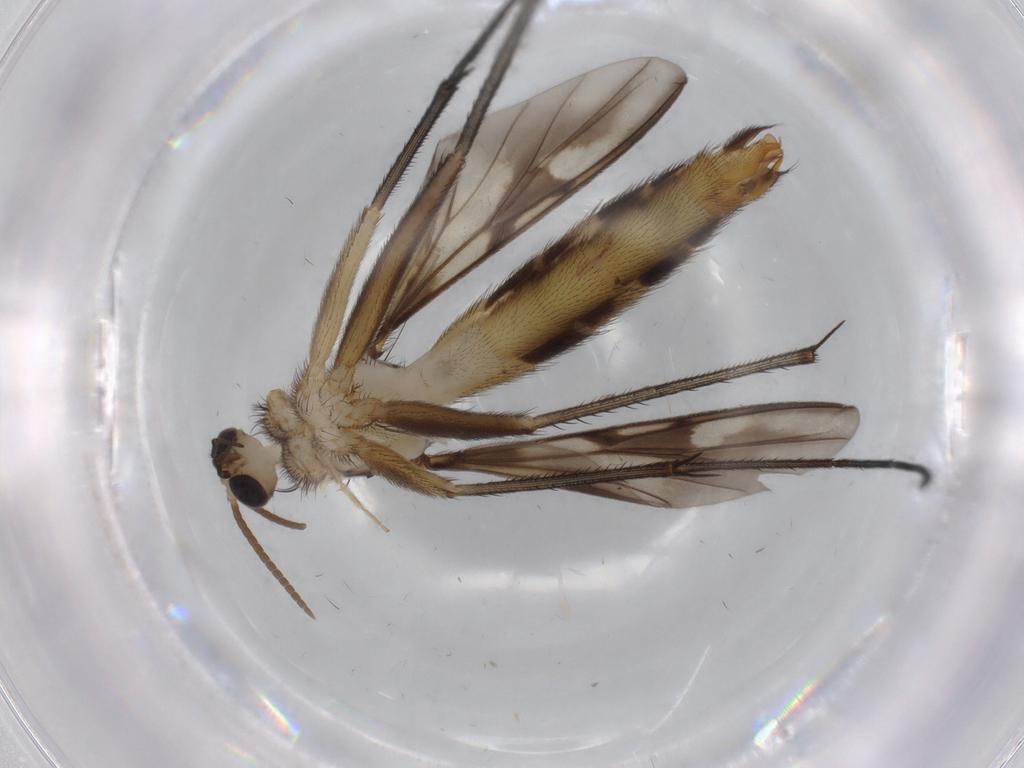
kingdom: Animalia
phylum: Arthropoda
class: Insecta
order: Diptera
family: Cecidomyiidae
